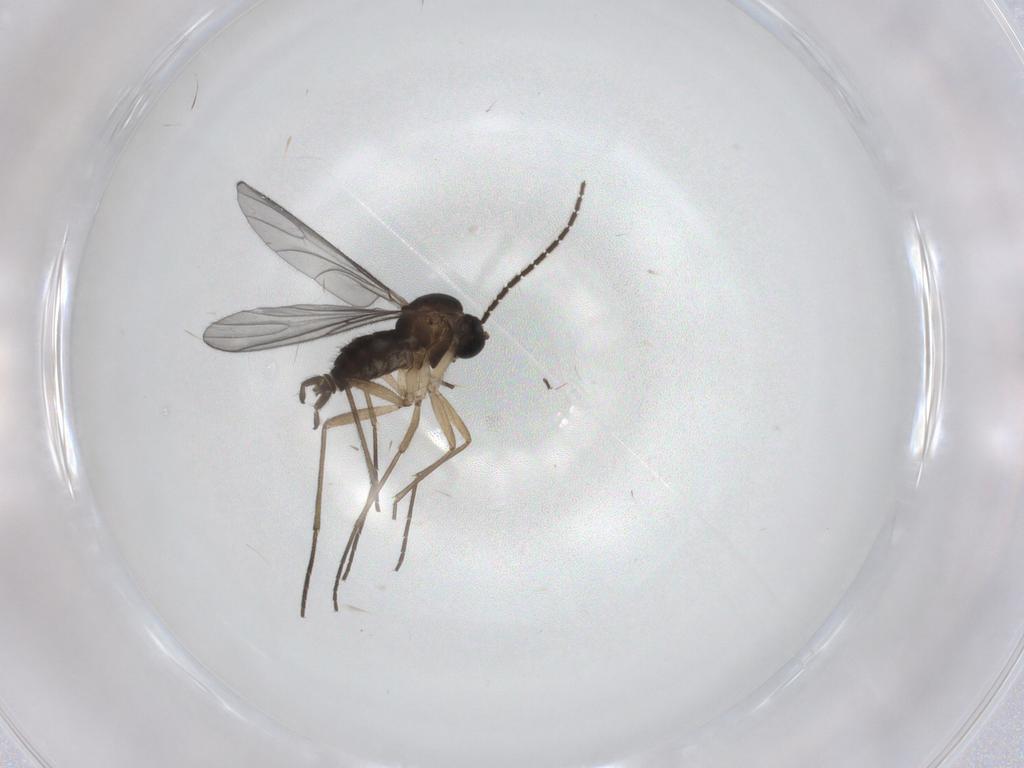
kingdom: Animalia
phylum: Arthropoda
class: Insecta
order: Diptera
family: Sciaridae
